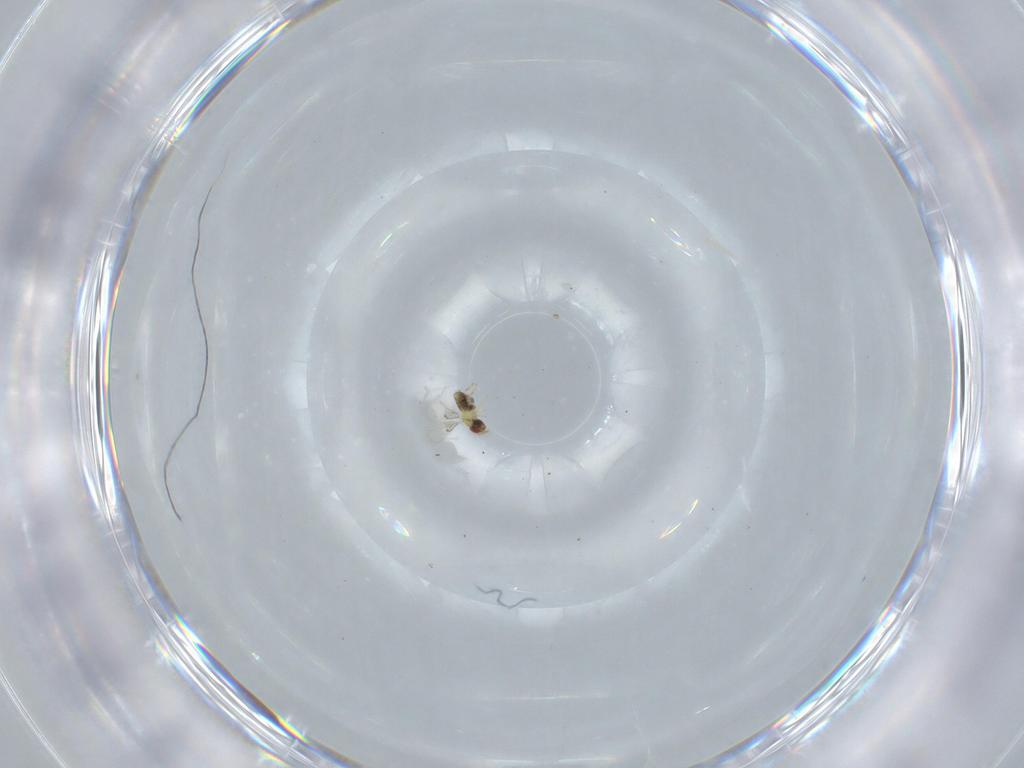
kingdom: Animalia
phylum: Arthropoda
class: Insecta
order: Hymenoptera
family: Trichogrammatidae
